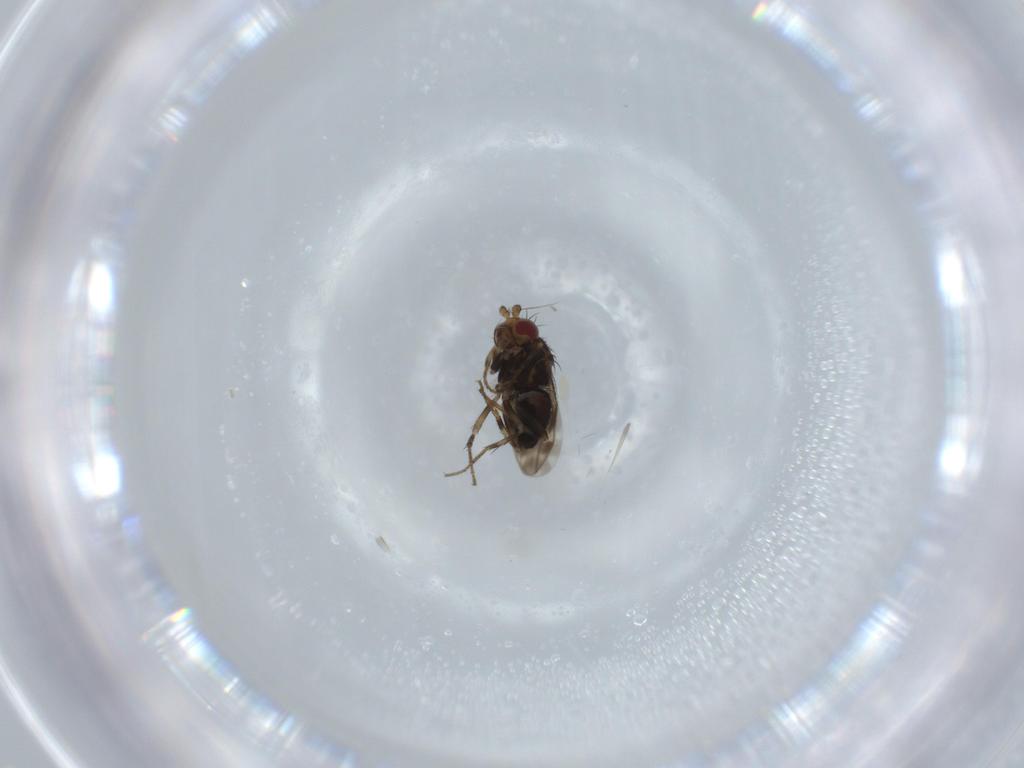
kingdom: Animalia
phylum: Arthropoda
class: Insecta
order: Diptera
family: Sphaeroceridae
